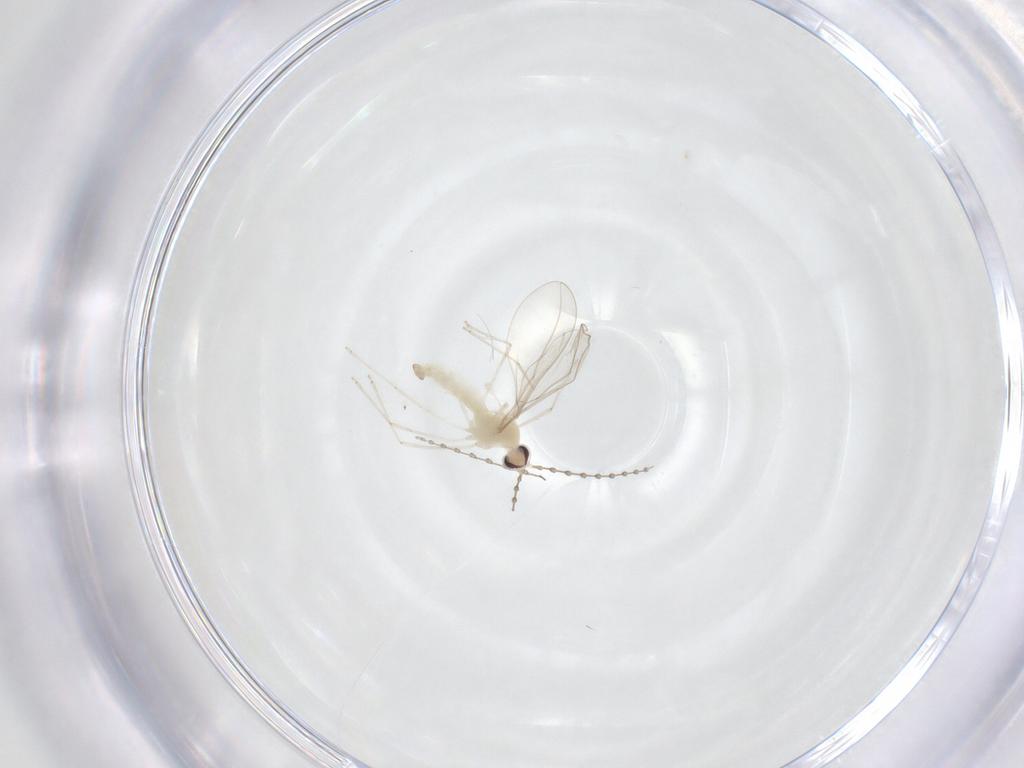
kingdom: Animalia
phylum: Arthropoda
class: Insecta
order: Diptera
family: Cecidomyiidae
